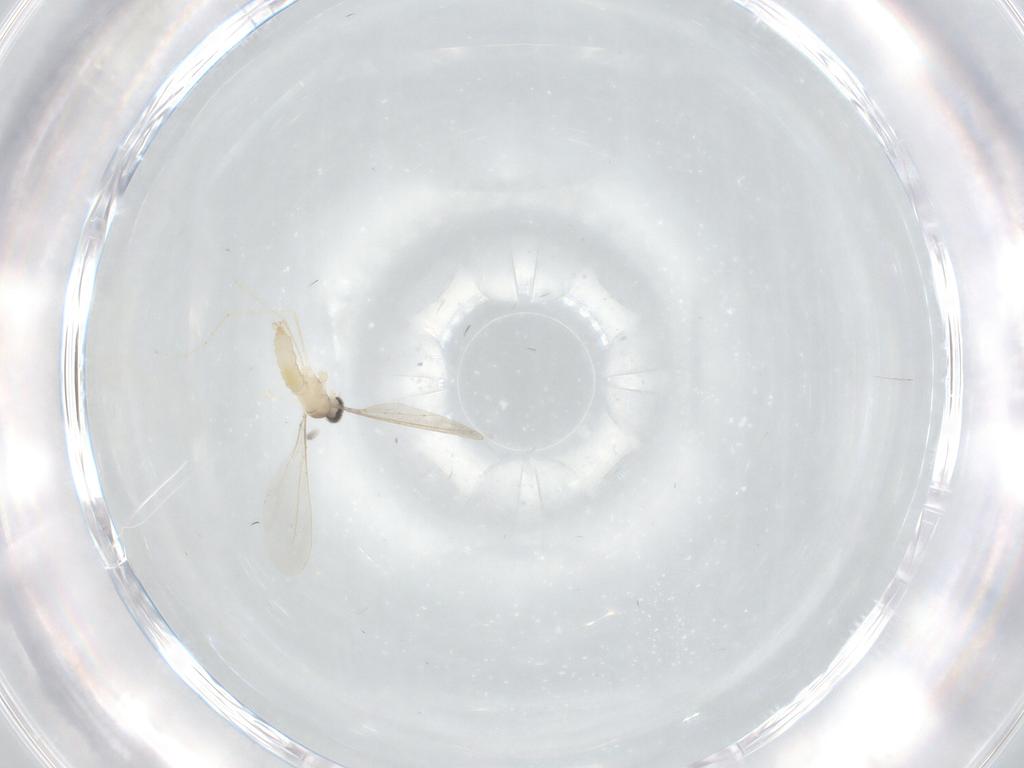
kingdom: Animalia
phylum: Arthropoda
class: Insecta
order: Diptera
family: Cecidomyiidae
